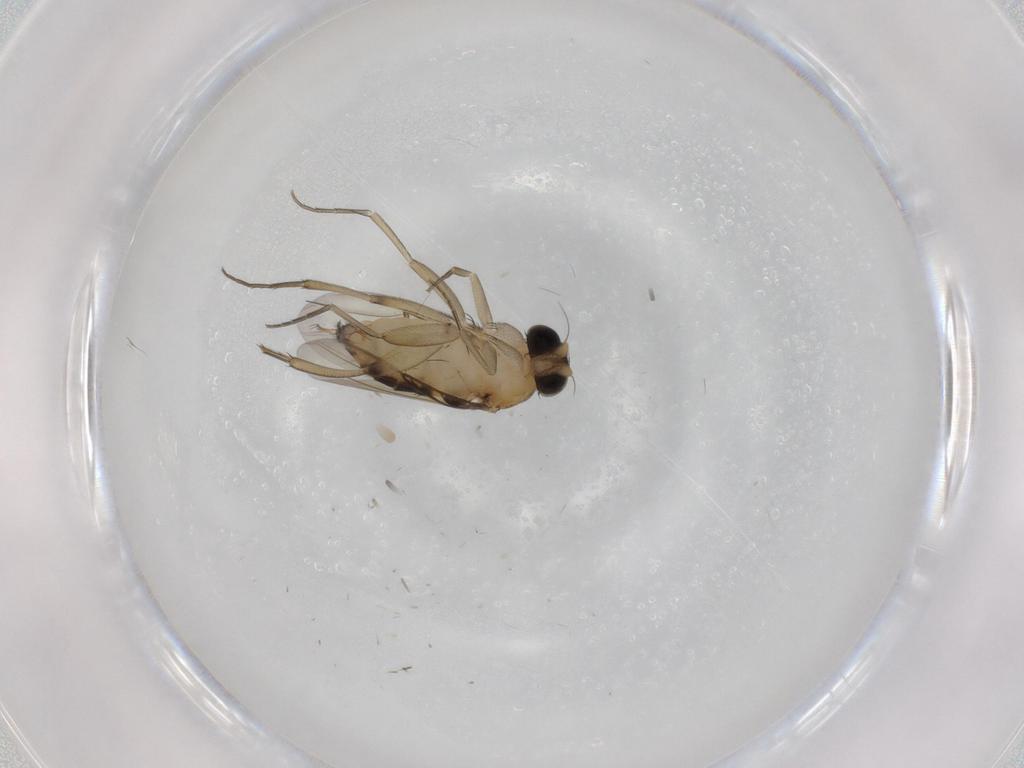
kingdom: Animalia
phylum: Arthropoda
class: Insecta
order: Diptera
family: Phoridae
